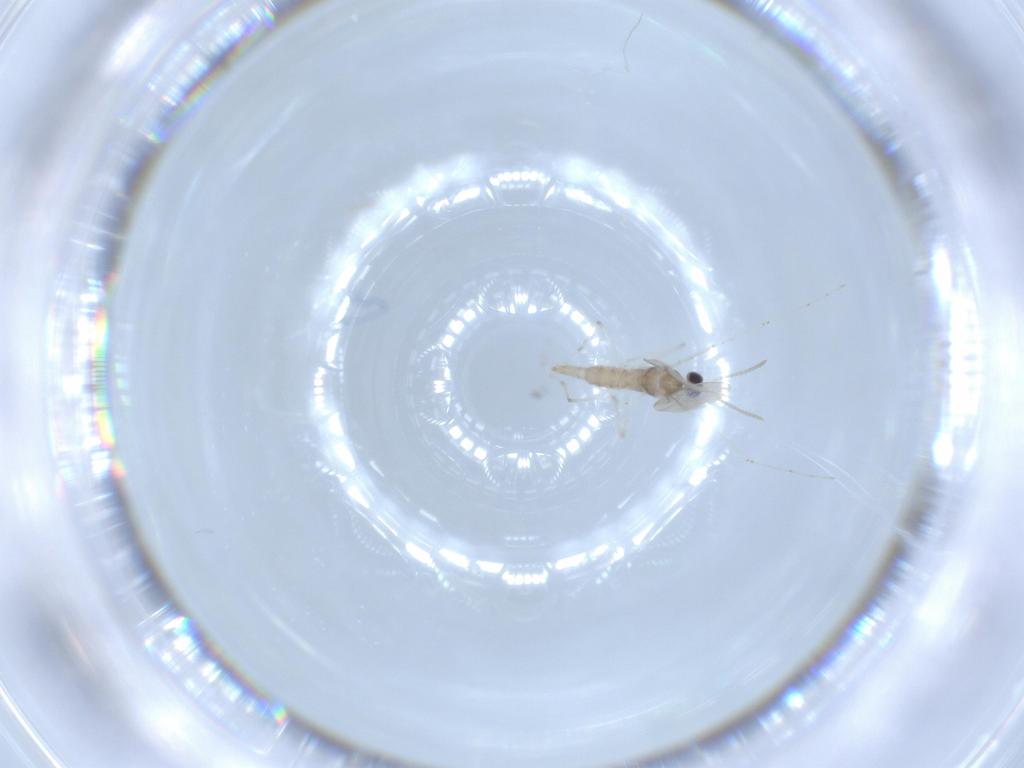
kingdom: Animalia
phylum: Arthropoda
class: Insecta
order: Diptera
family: Cecidomyiidae
